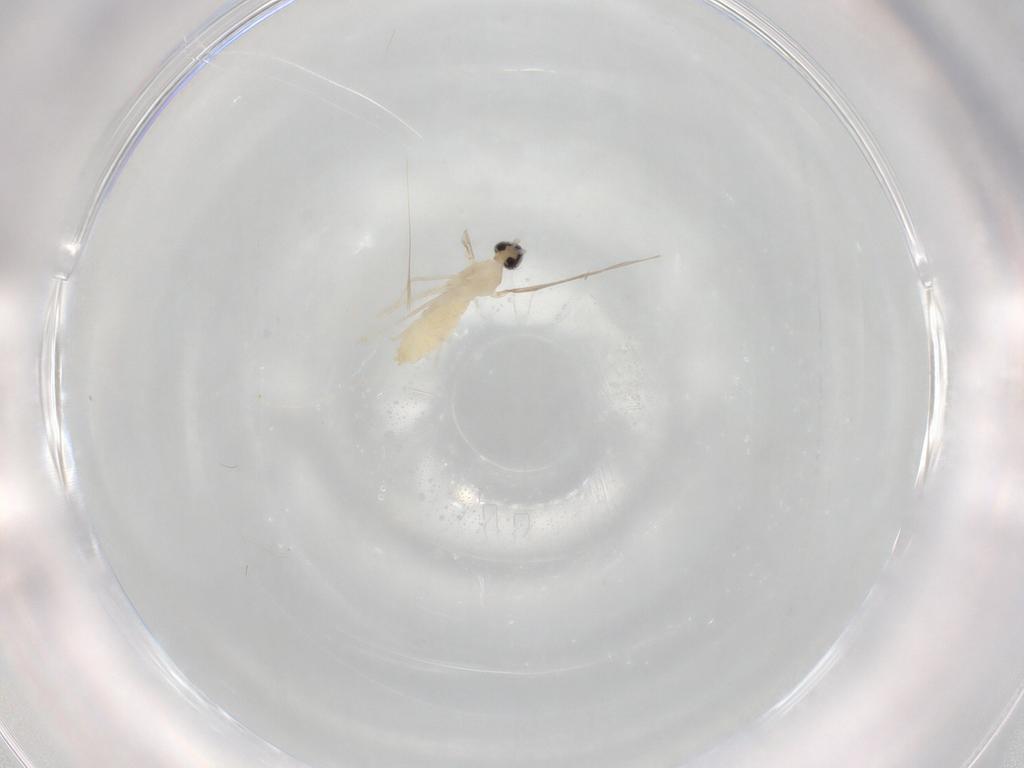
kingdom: Animalia
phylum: Arthropoda
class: Insecta
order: Diptera
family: Cecidomyiidae
